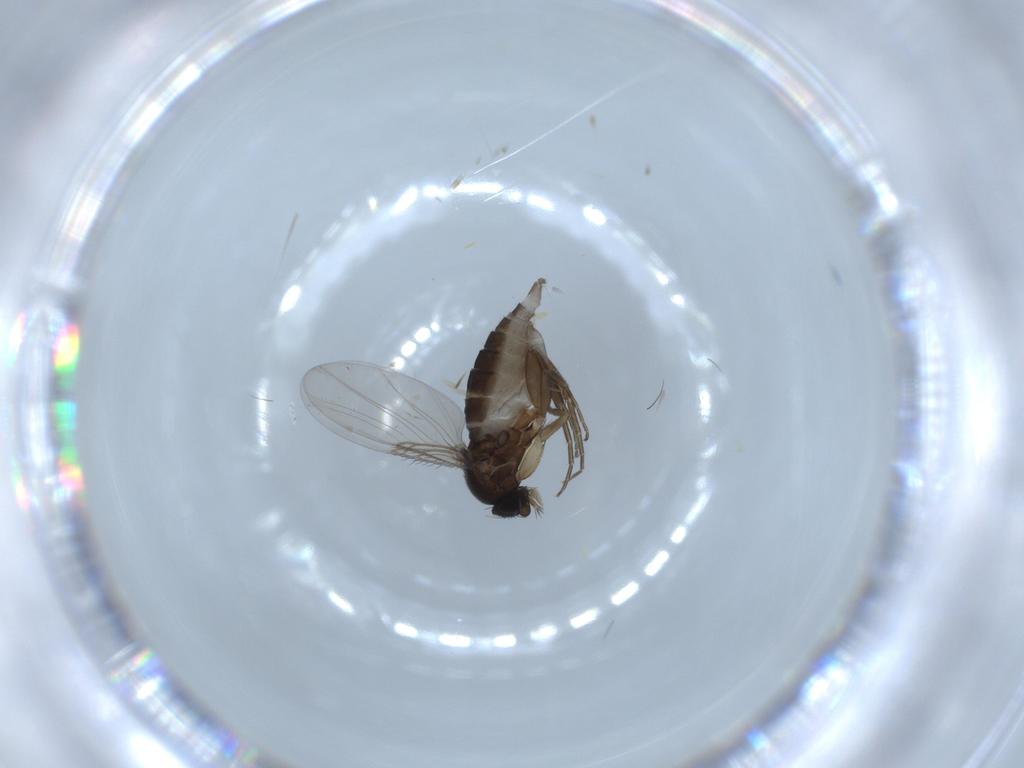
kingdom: Animalia
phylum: Arthropoda
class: Insecta
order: Diptera
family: Phoridae
